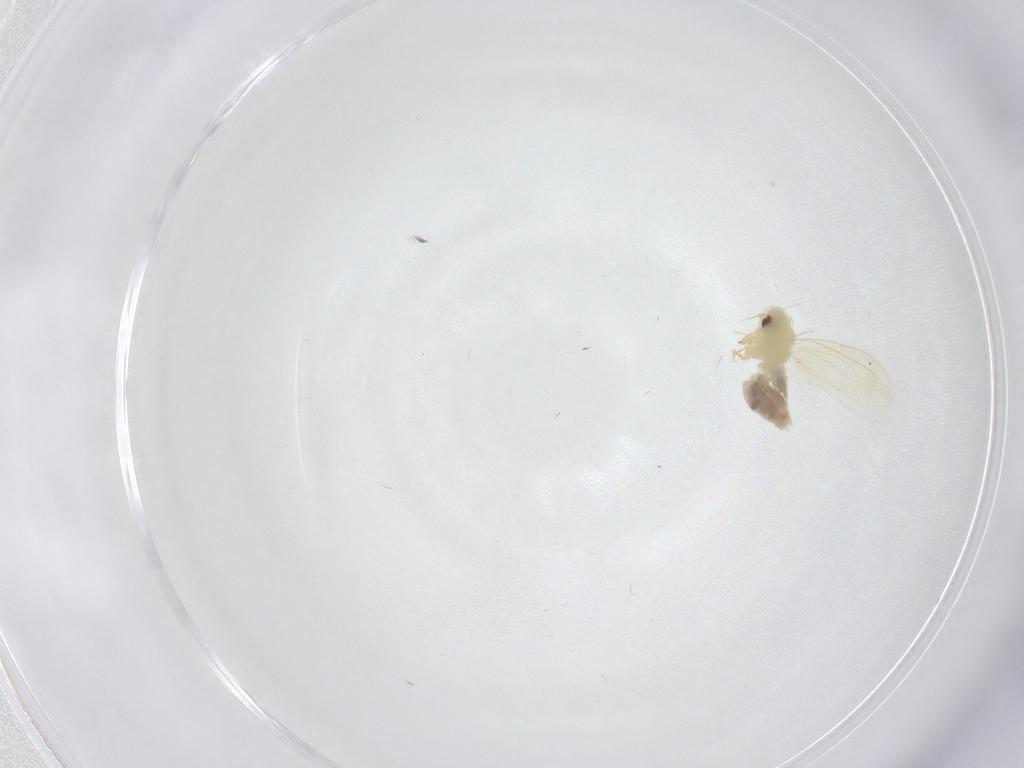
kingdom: Animalia
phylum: Arthropoda
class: Insecta
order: Hemiptera
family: Aleyrodidae
